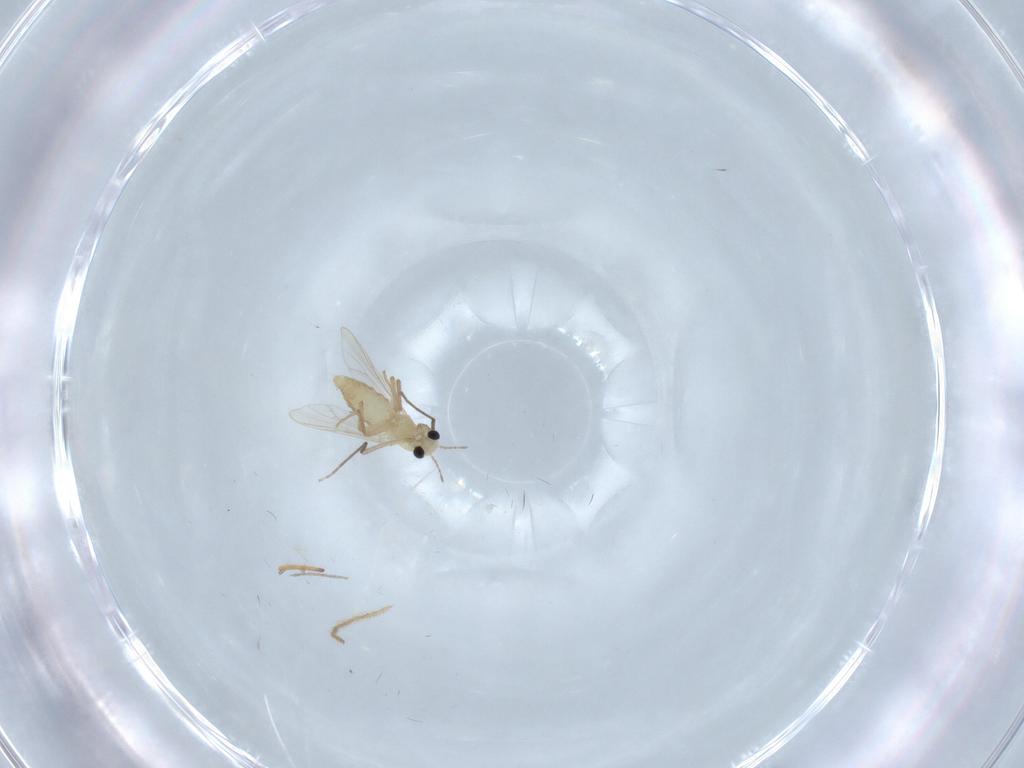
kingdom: Animalia
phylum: Arthropoda
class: Insecta
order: Diptera
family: Chironomidae
